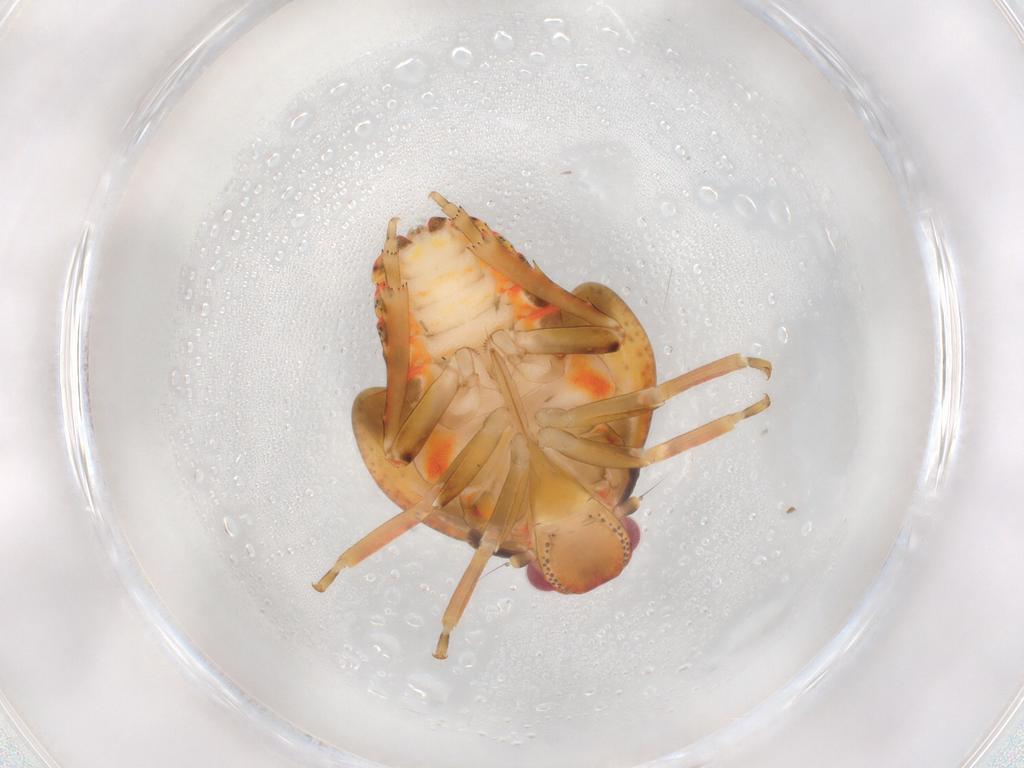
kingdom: Animalia
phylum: Arthropoda
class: Insecta
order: Hemiptera
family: Flatidae
